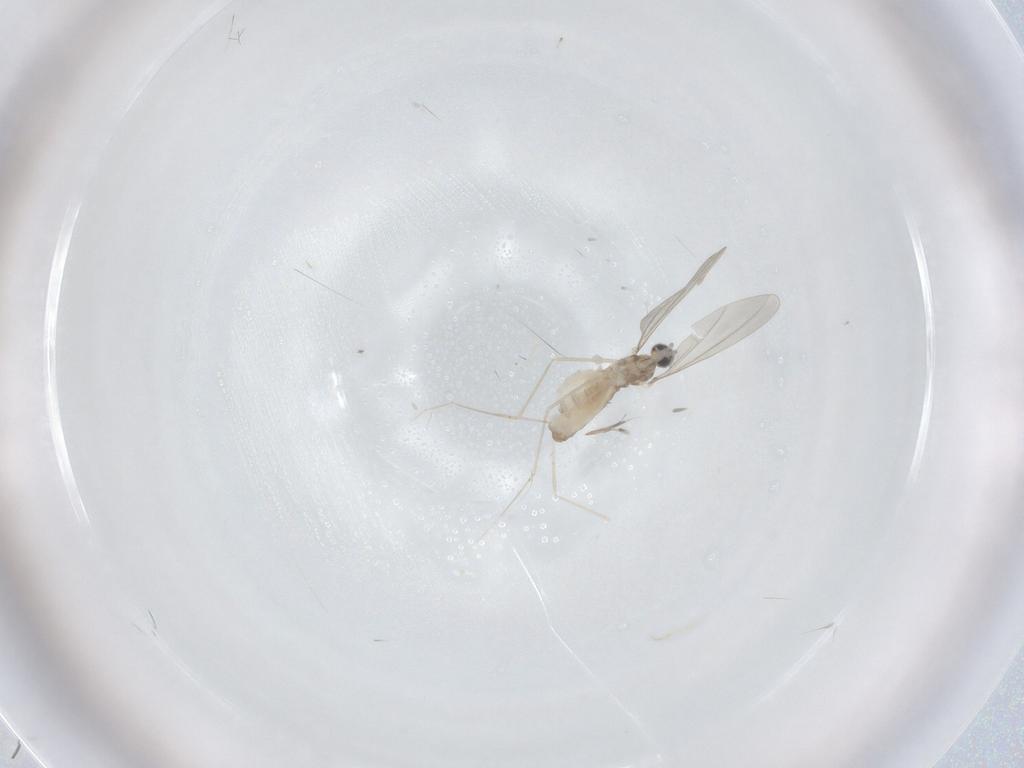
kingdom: Animalia
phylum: Arthropoda
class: Insecta
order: Diptera
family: Cecidomyiidae
